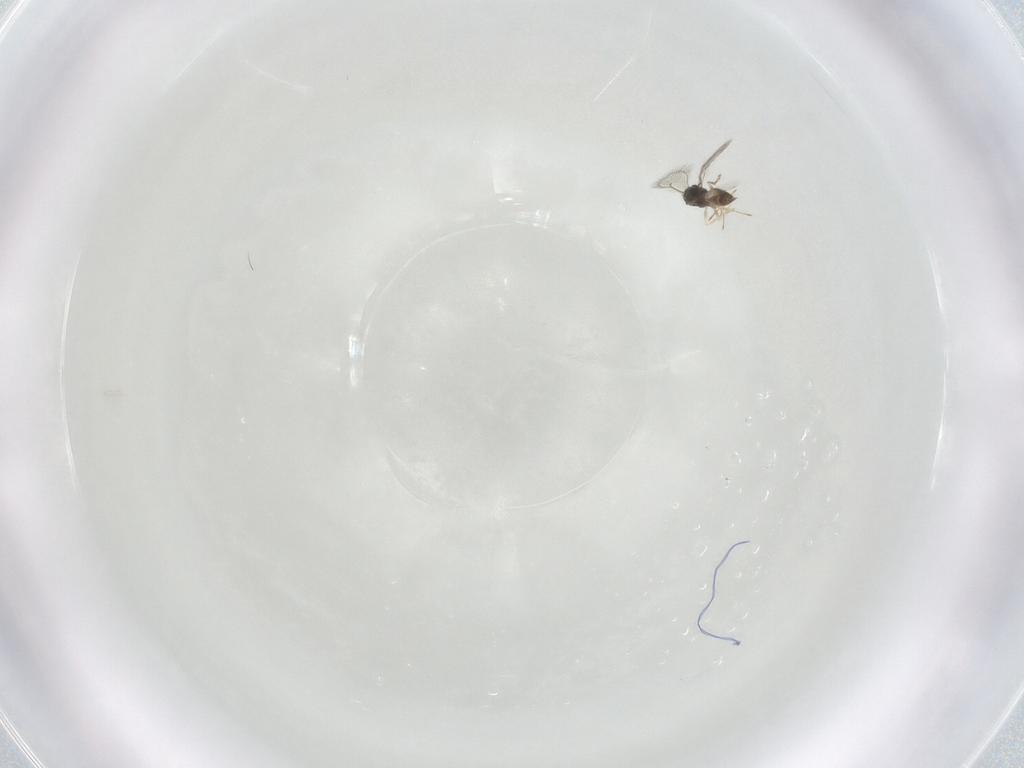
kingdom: Animalia
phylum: Arthropoda
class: Insecta
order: Hymenoptera
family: Eulophidae
